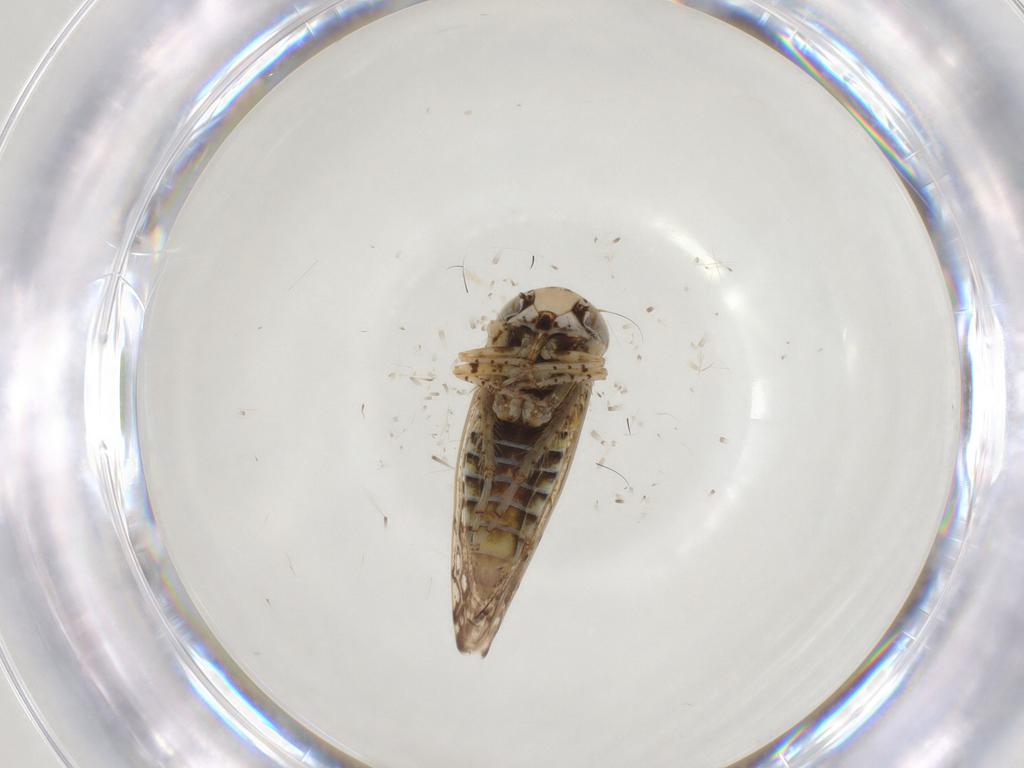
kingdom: Animalia
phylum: Arthropoda
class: Insecta
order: Hemiptera
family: Cicadellidae
